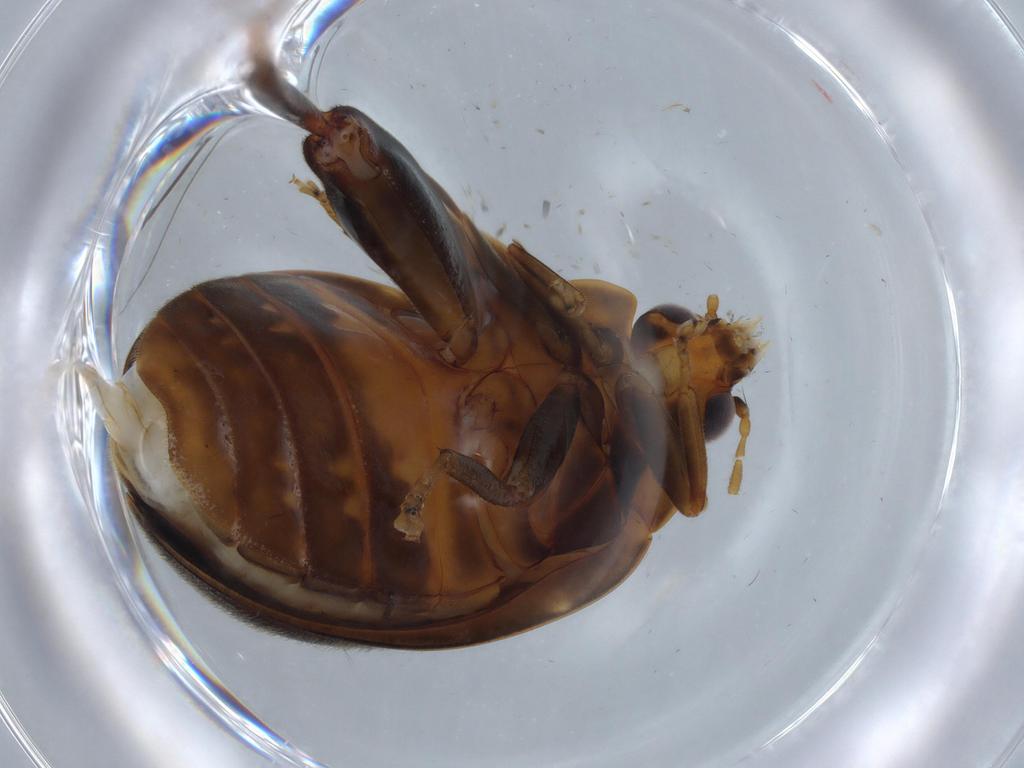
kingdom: Animalia
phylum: Arthropoda
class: Insecta
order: Coleoptera
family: Scirtidae
